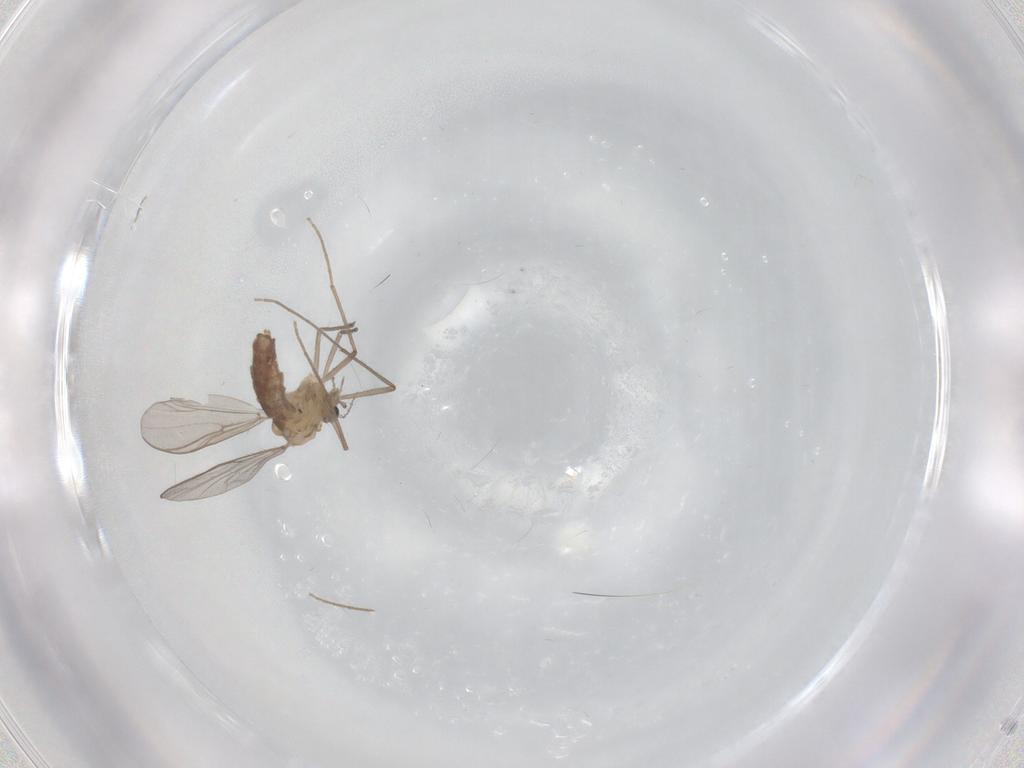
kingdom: Animalia
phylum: Arthropoda
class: Insecta
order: Diptera
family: Chironomidae
